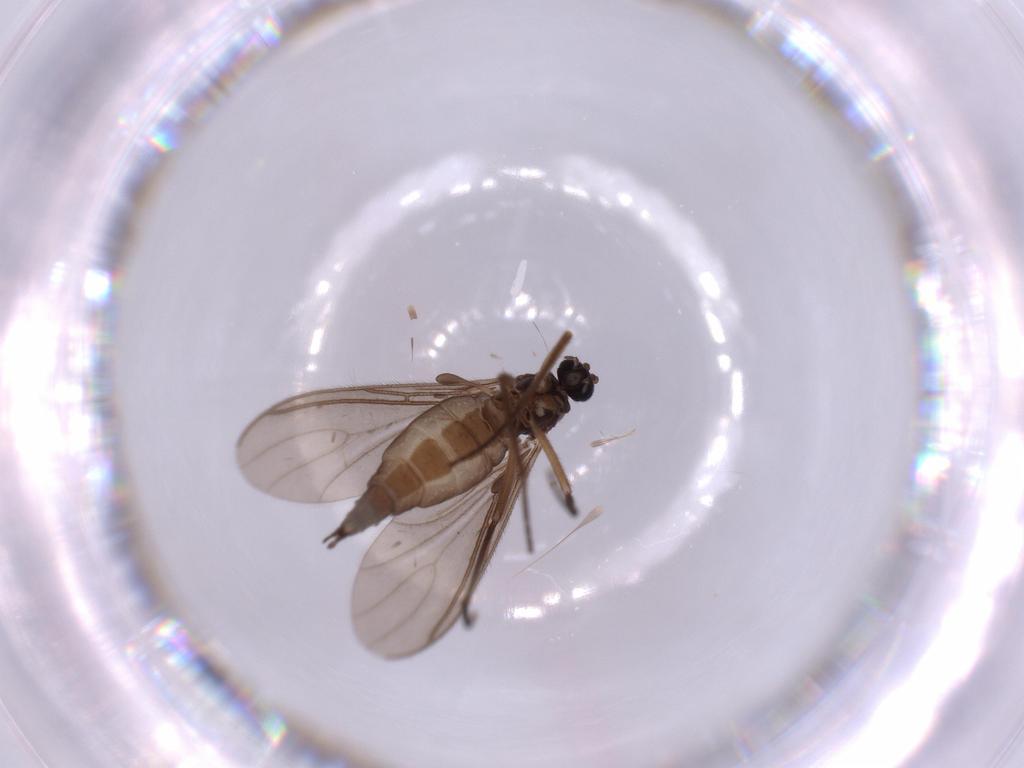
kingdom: Animalia
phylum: Arthropoda
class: Insecta
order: Diptera
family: Sciaridae
